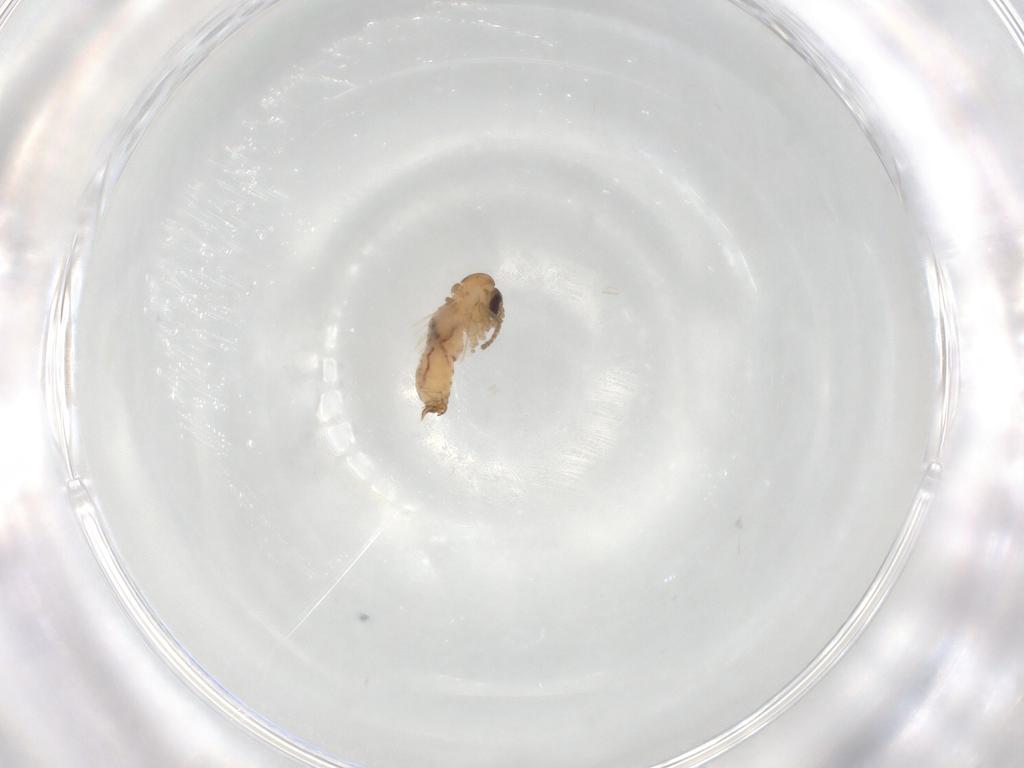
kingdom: Animalia
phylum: Arthropoda
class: Insecta
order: Diptera
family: Psychodidae
